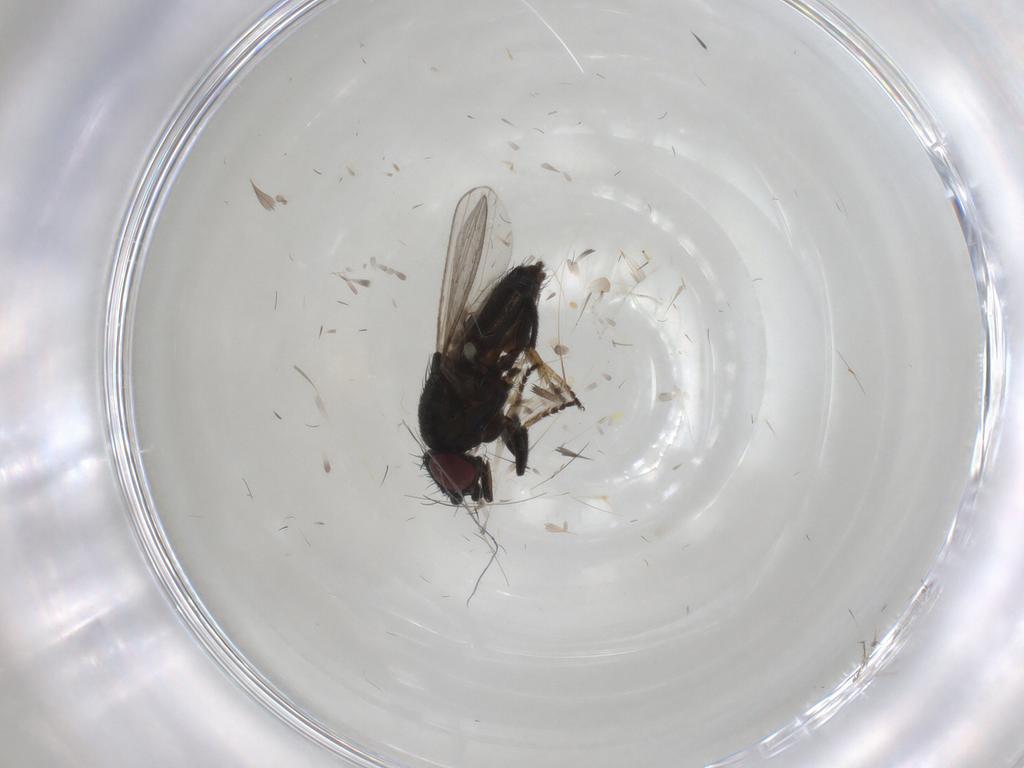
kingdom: Animalia
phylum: Arthropoda
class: Insecta
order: Diptera
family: Milichiidae
